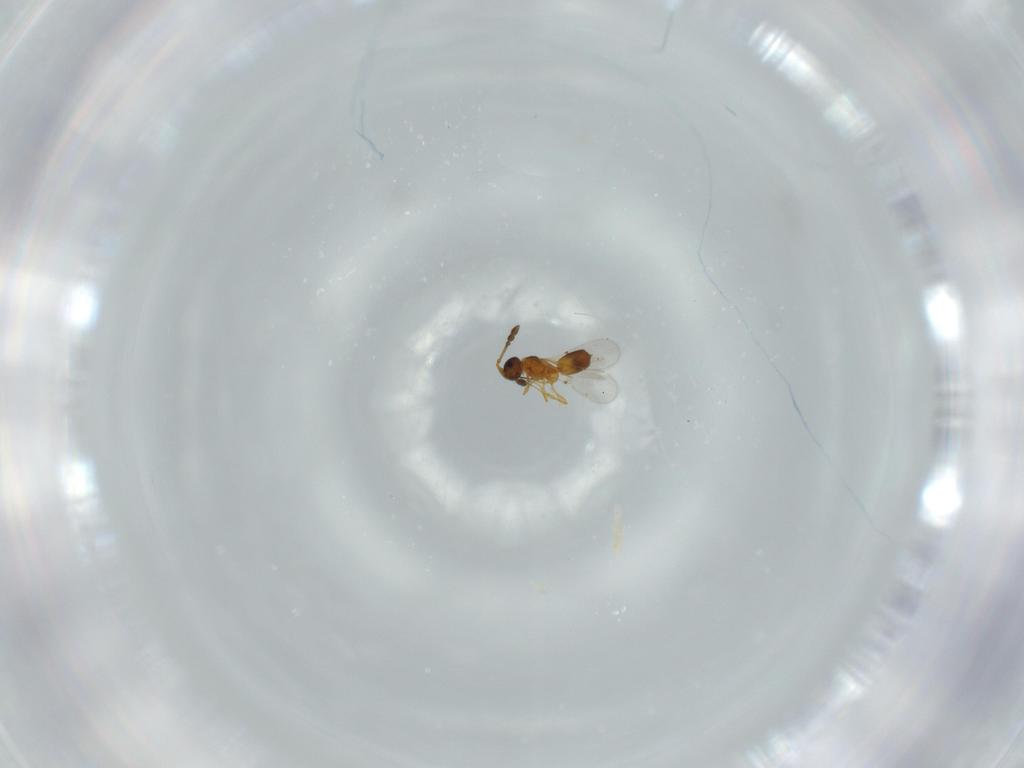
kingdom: Animalia
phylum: Arthropoda
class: Insecta
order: Hymenoptera
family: Diapriidae
